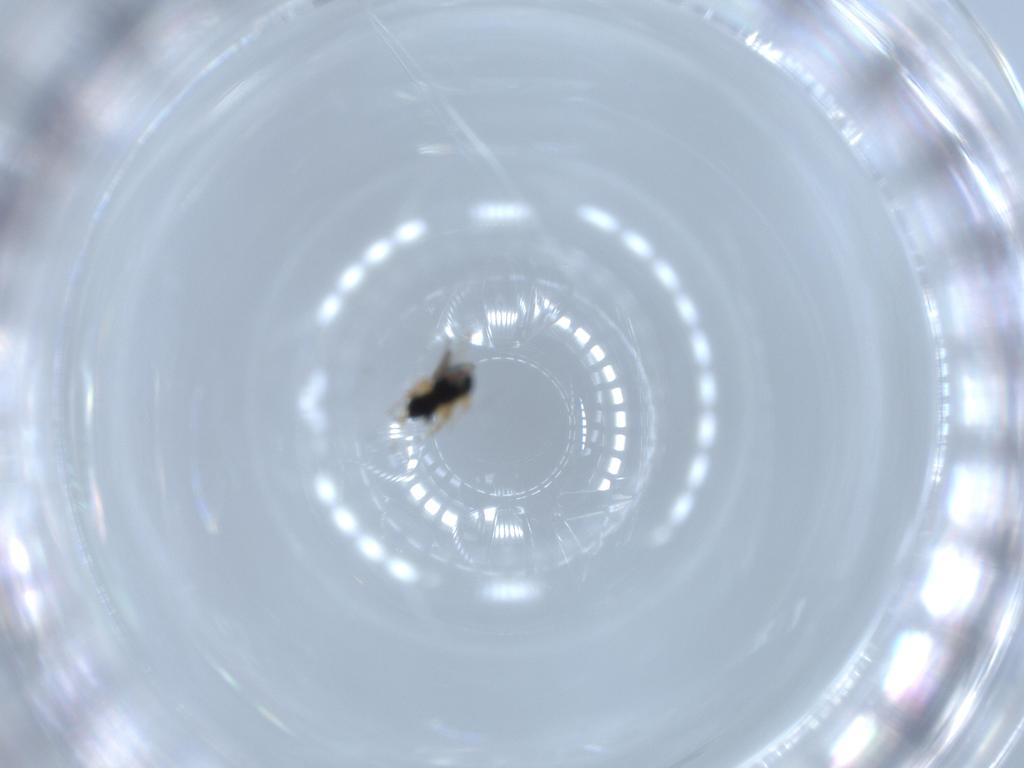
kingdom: Animalia
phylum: Arthropoda
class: Insecta
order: Hymenoptera
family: Scelionidae
